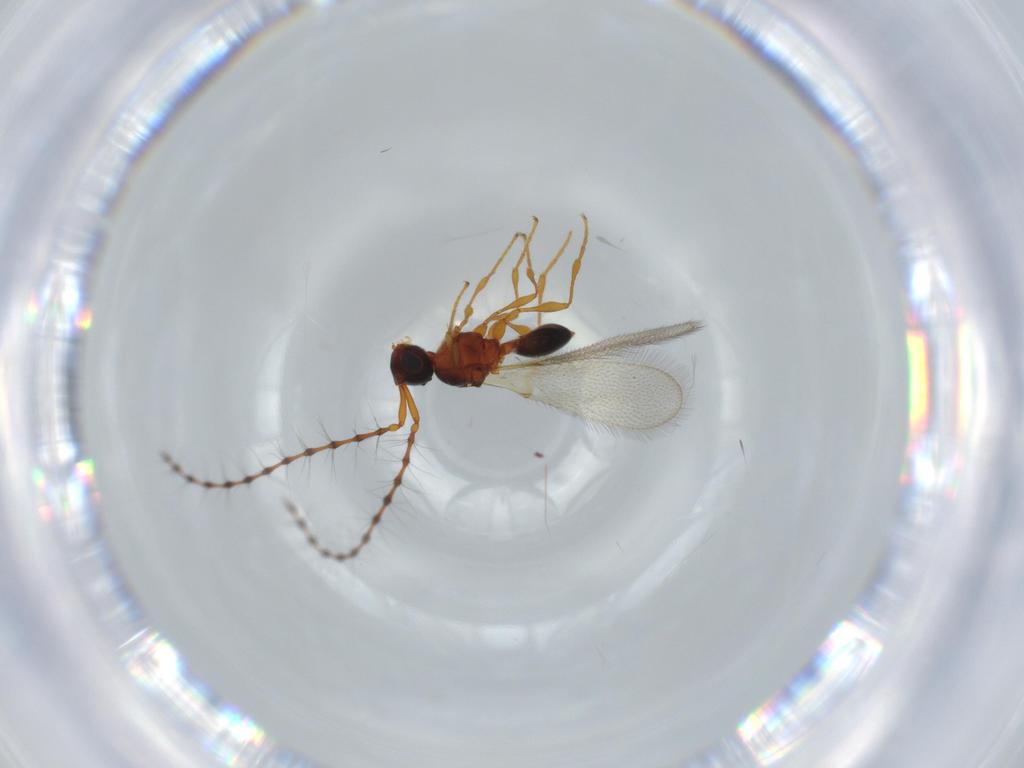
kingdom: Animalia
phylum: Arthropoda
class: Insecta
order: Hymenoptera
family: Diapriidae
